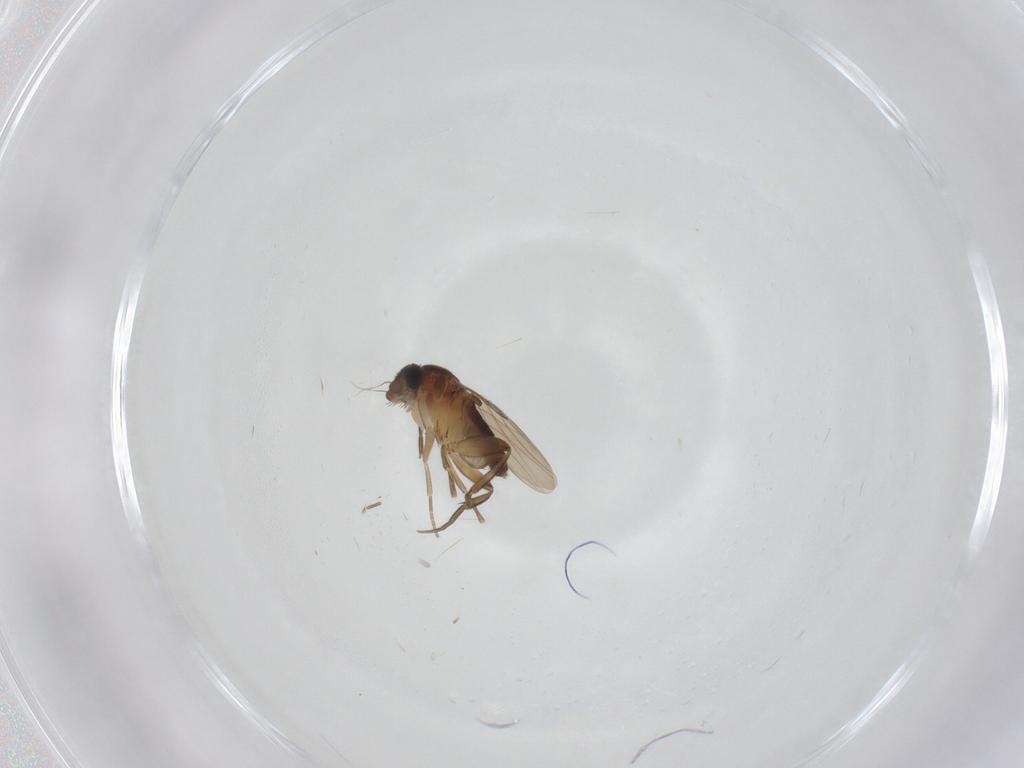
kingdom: Animalia
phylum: Arthropoda
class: Insecta
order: Diptera
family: Phoridae
